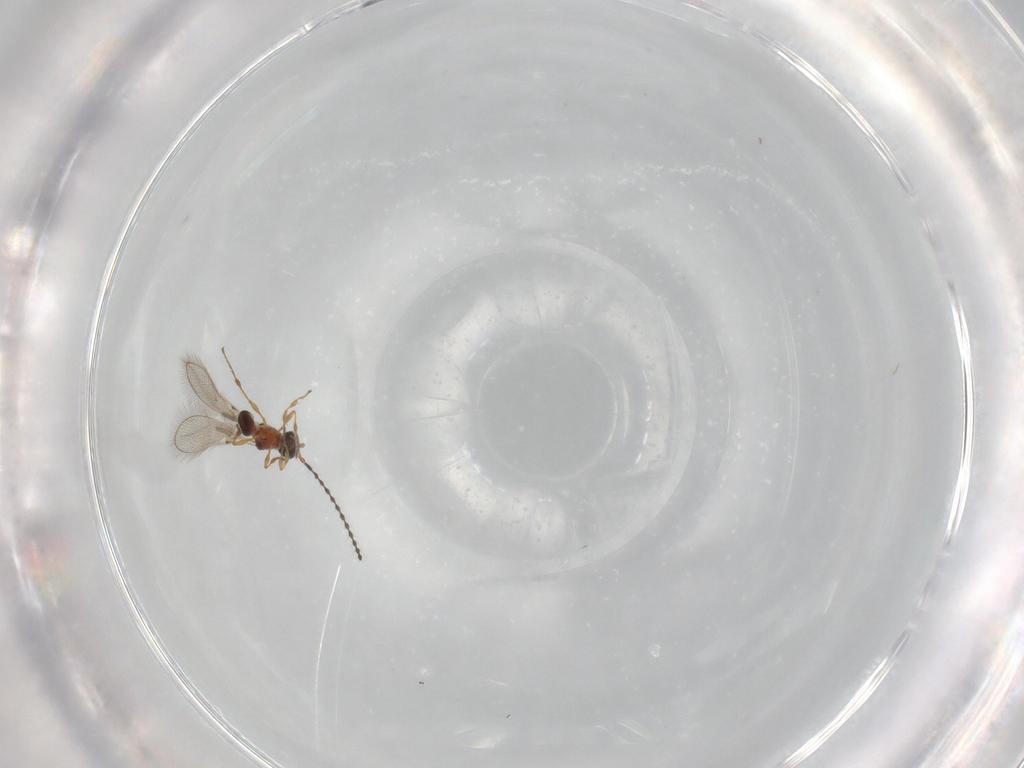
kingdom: Animalia
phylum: Arthropoda
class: Insecta
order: Hymenoptera
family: Diapriidae
